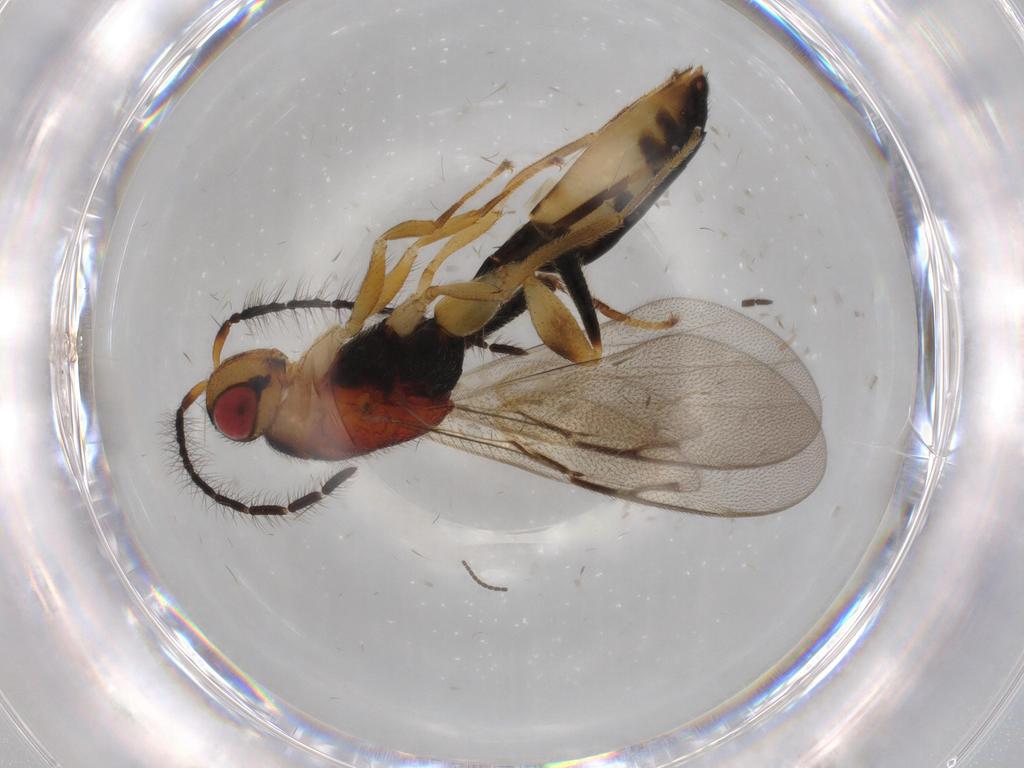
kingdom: Animalia
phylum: Arthropoda
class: Insecta
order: Hymenoptera
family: Eurytomidae
